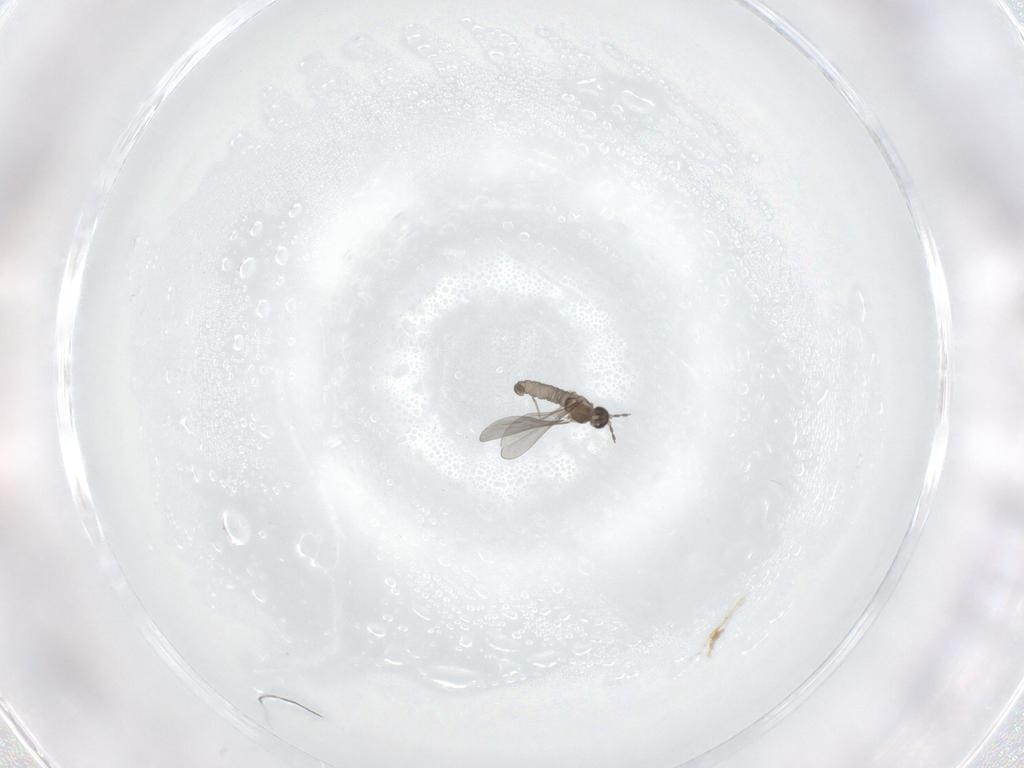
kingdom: Animalia
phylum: Arthropoda
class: Insecta
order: Diptera
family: Cecidomyiidae
